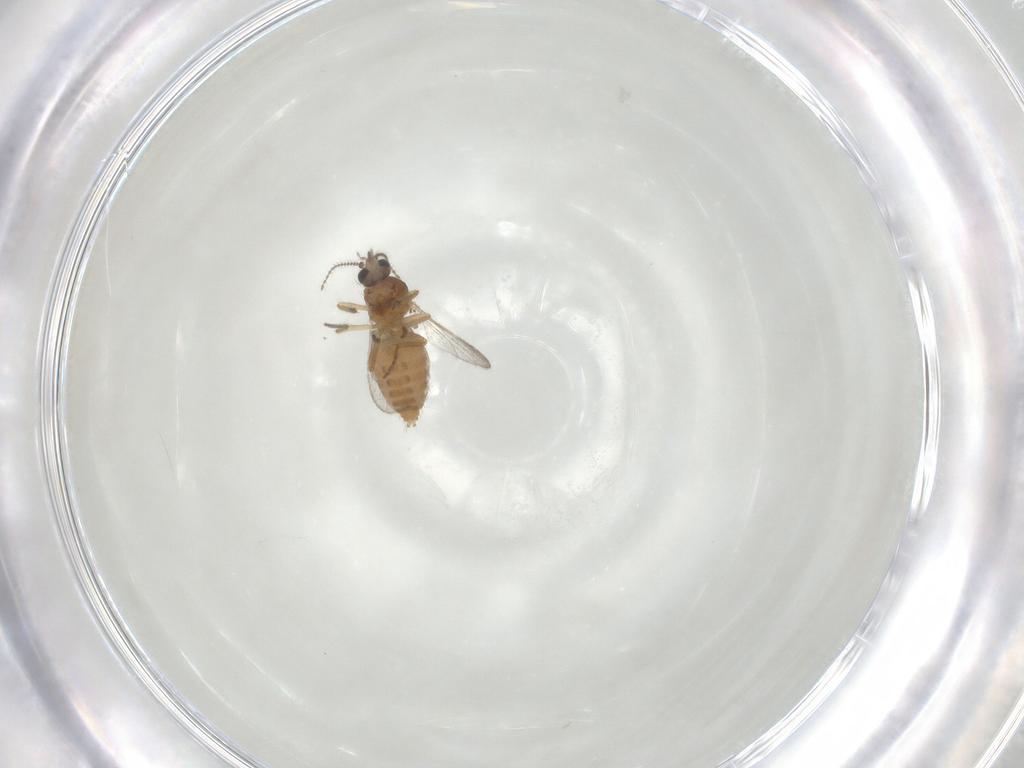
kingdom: Animalia
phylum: Arthropoda
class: Insecta
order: Diptera
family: Ceratopogonidae
